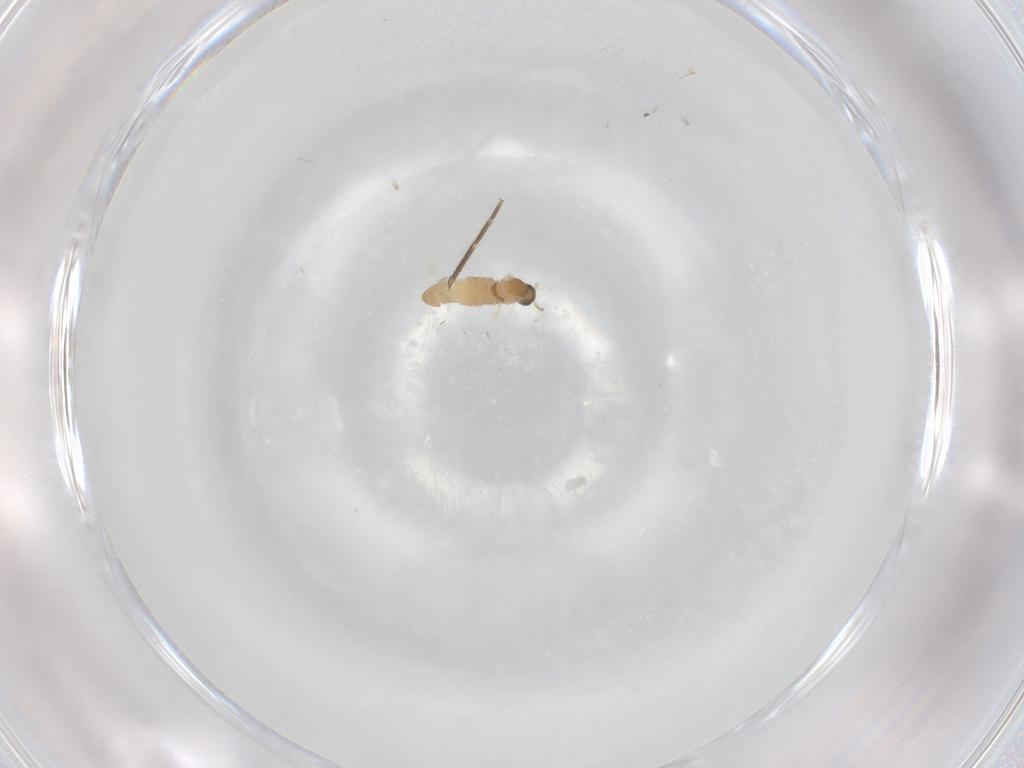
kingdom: Animalia
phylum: Arthropoda
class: Insecta
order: Diptera
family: Cecidomyiidae
